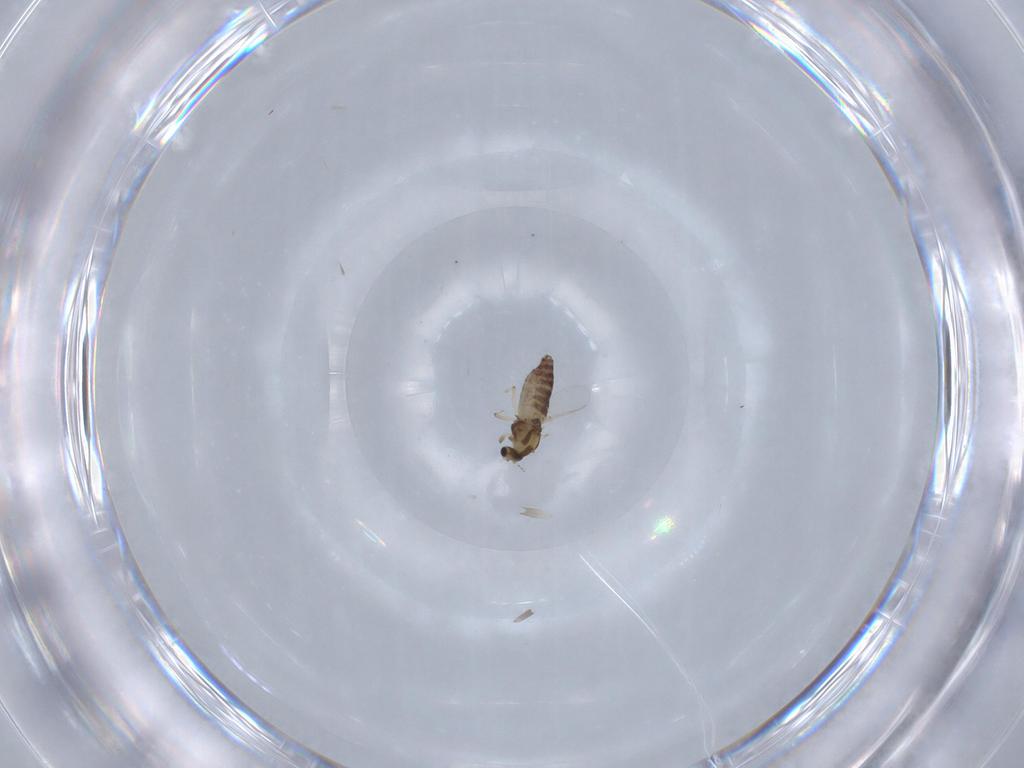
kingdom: Animalia
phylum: Arthropoda
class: Insecta
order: Diptera
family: Chironomidae
